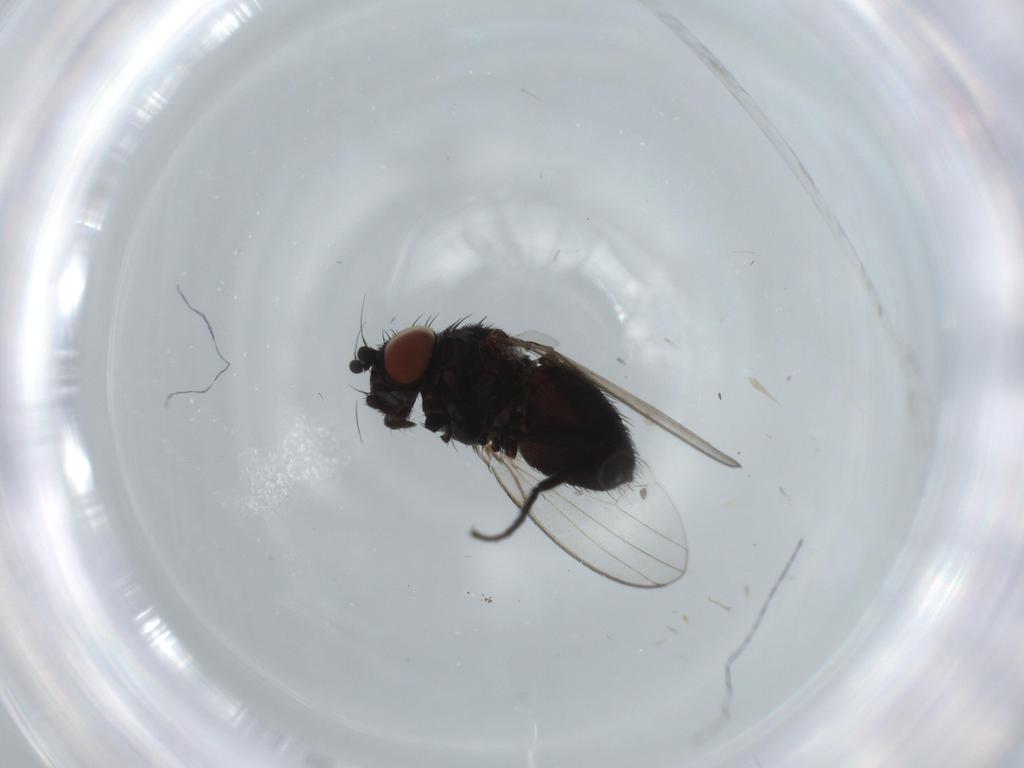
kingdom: Animalia
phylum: Arthropoda
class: Insecta
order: Diptera
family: Milichiidae
